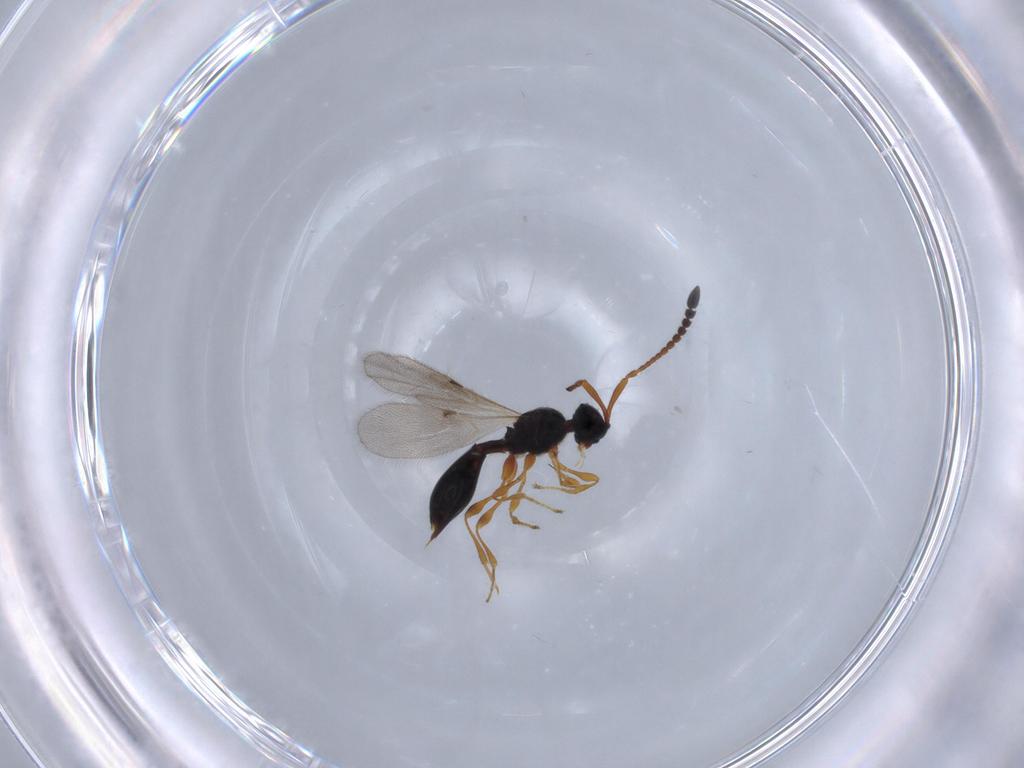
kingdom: Animalia
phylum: Arthropoda
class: Insecta
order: Hymenoptera
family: Diapriidae
